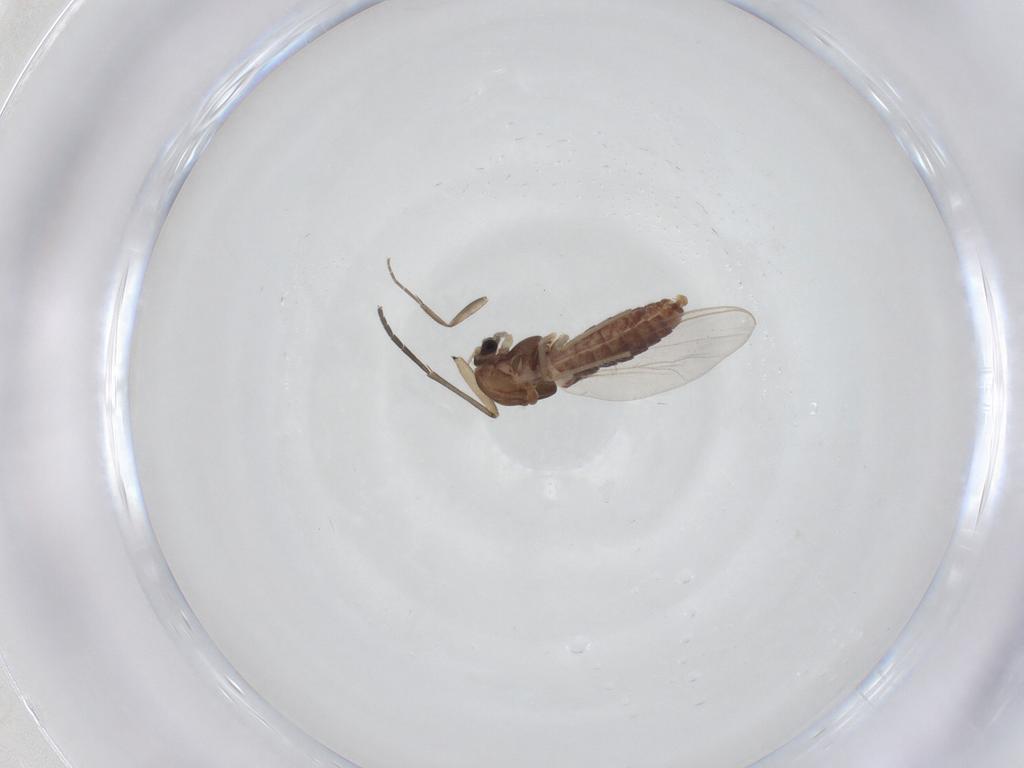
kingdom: Animalia
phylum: Arthropoda
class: Insecta
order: Diptera
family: Chironomidae
